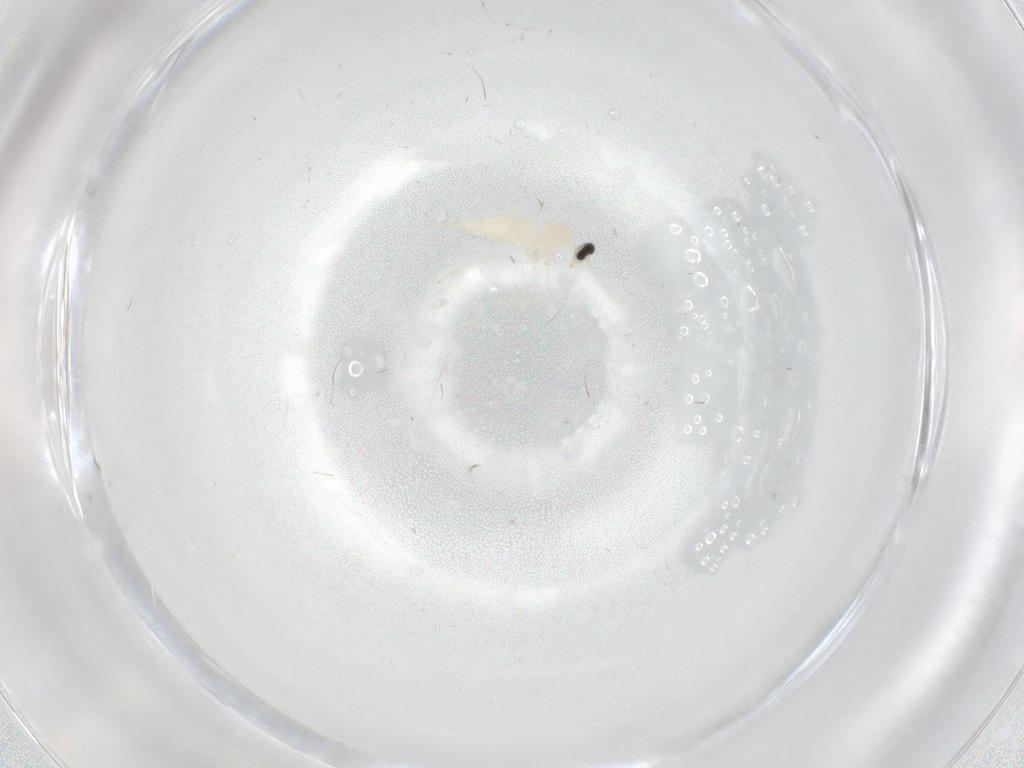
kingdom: Animalia
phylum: Arthropoda
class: Insecta
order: Diptera
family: Cecidomyiidae
